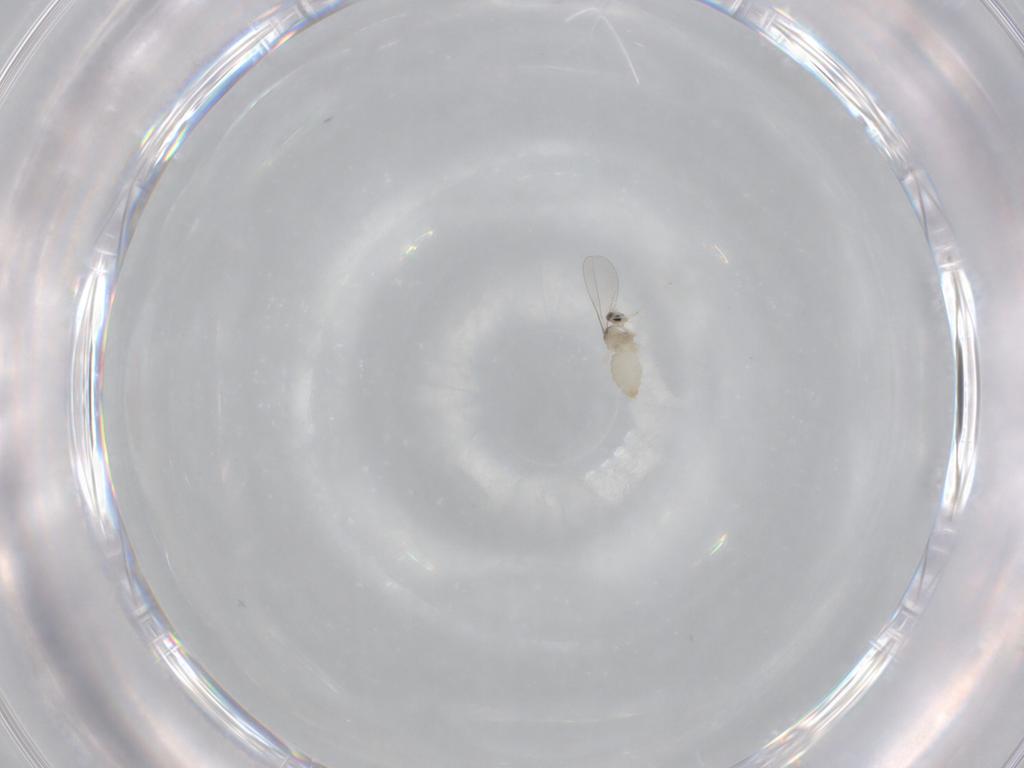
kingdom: Animalia
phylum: Arthropoda
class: Insecta
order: Diptera
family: Cecidomyiidae
